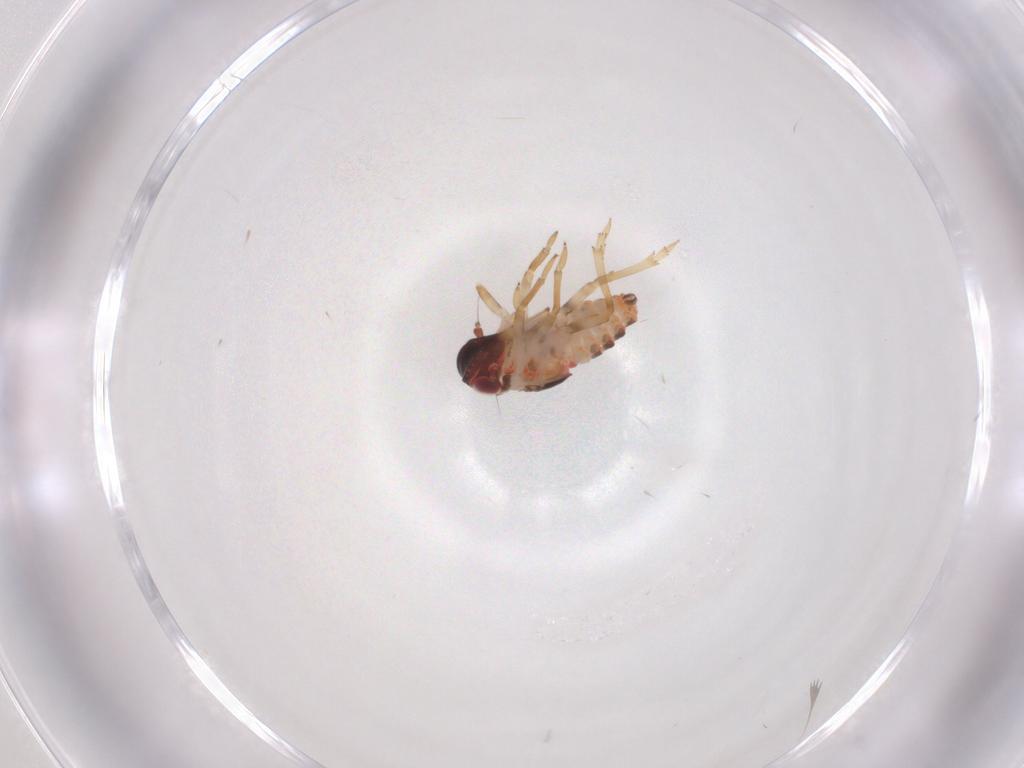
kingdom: Animalia
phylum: Arthropoda
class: Insecta
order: Hemiptera
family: Issidae
